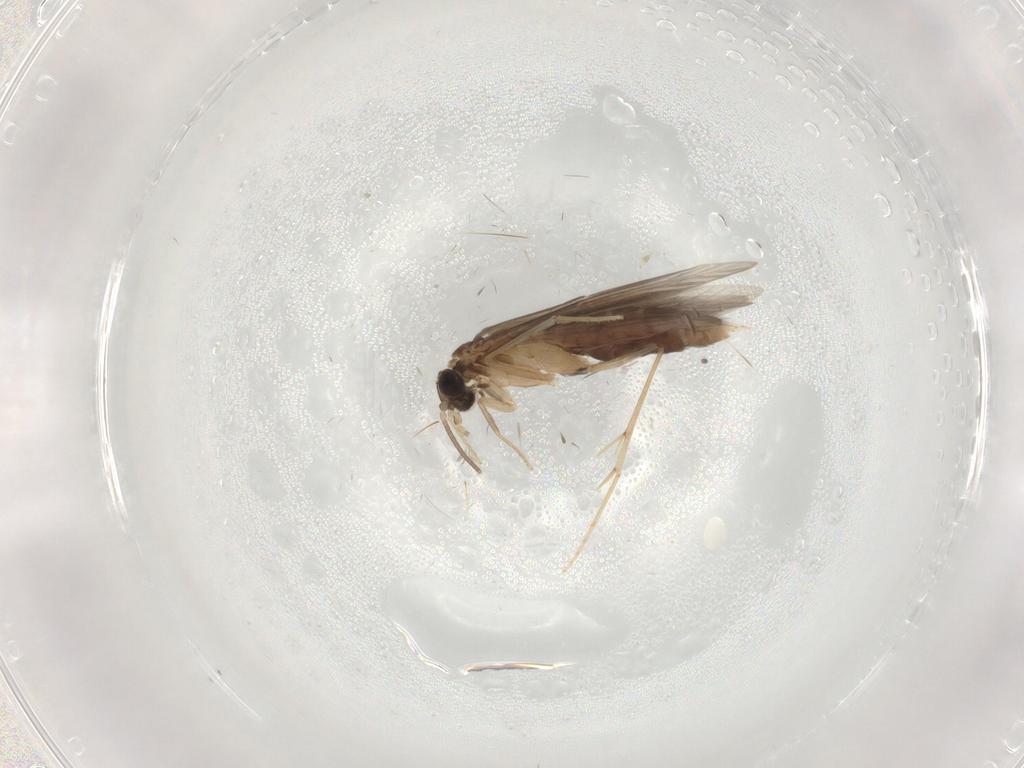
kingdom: Animalia
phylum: Arthropoda
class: Insecta
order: Trichoptera
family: Hydroptilidae
